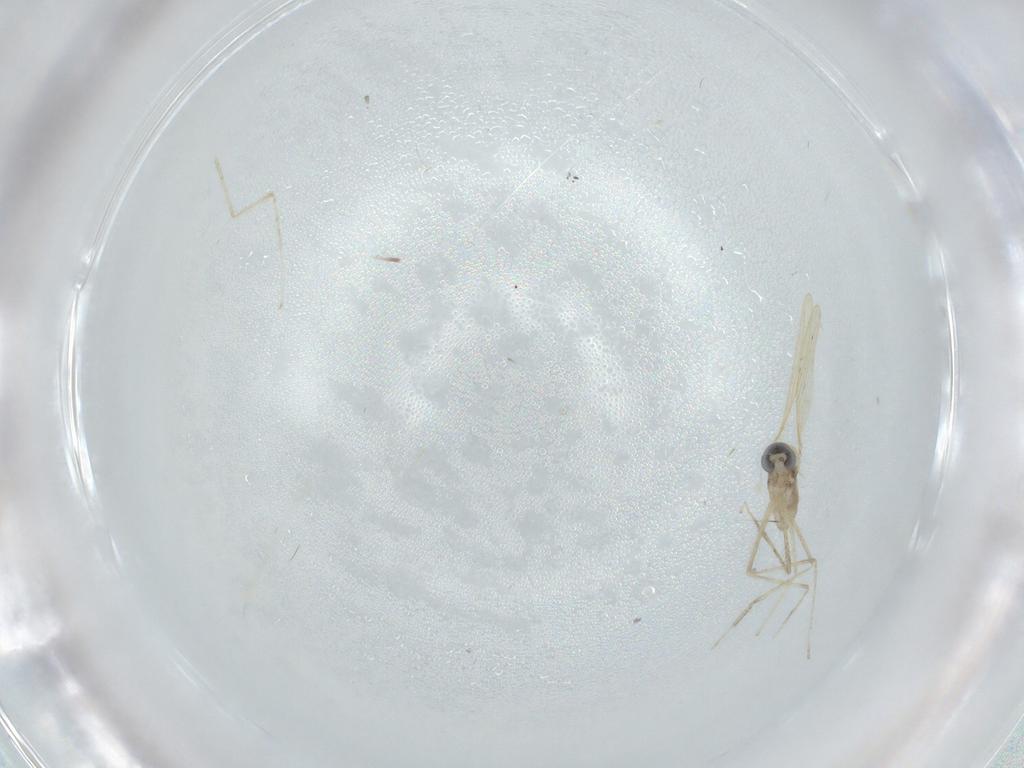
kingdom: Animalia
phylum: Arthropoda
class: Insecta
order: Diptera
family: Cecidomyiidae
